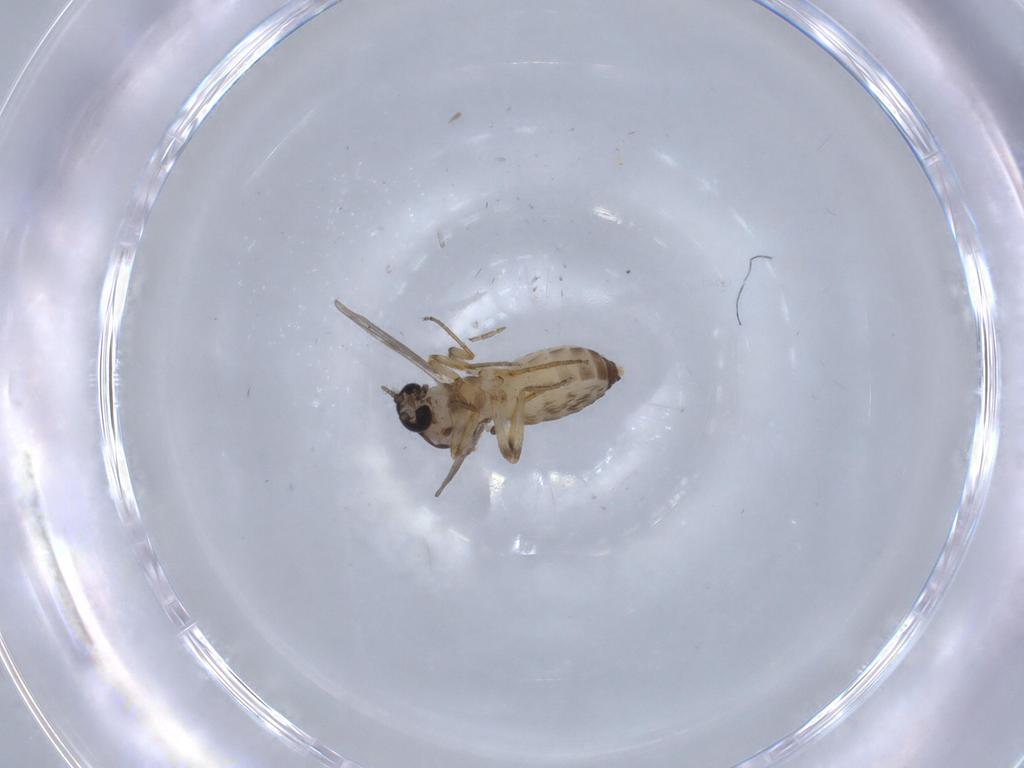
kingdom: Animalia
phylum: Arthropoda
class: Insecta
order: Diptera
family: Ceratopogonidae
